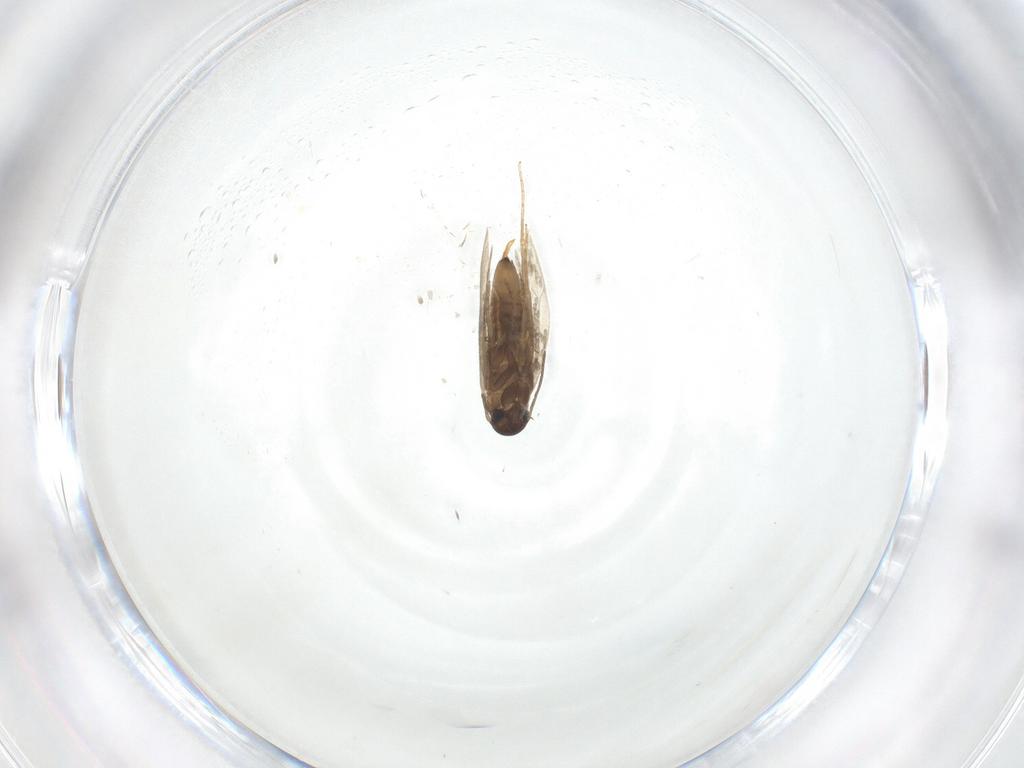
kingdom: Animalia
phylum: Arthropoda
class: Insecta
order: Lepidoptera
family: Heliozelidae
